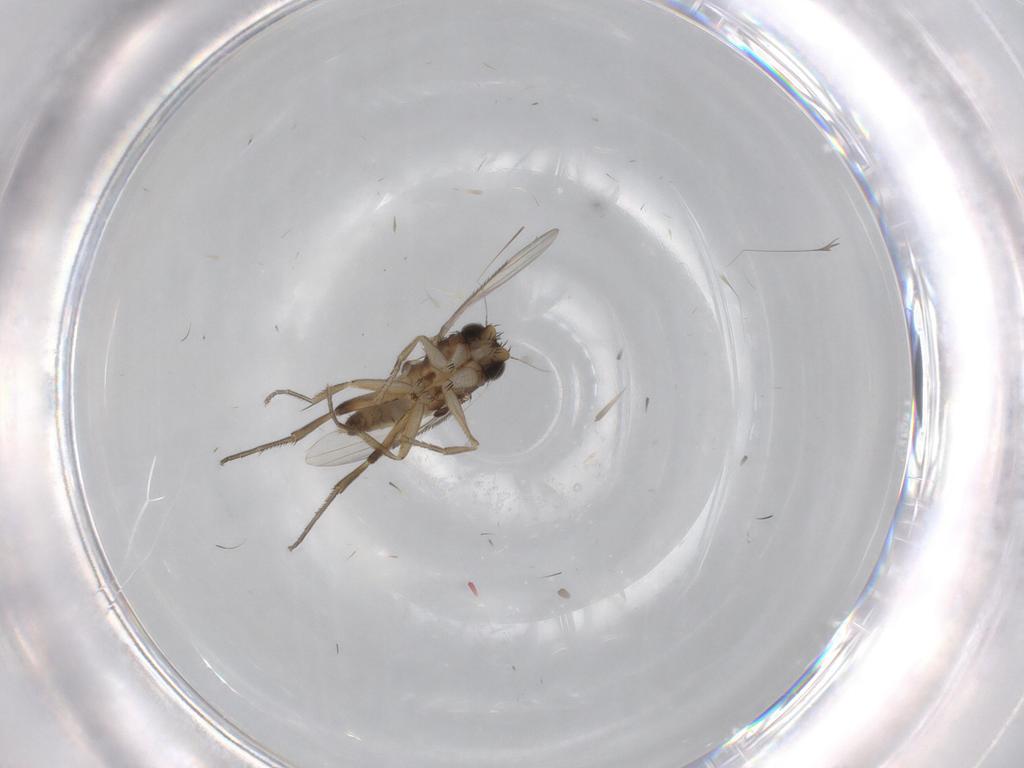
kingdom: Animalia
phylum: Arthropoda
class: Insecta
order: Diptera
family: Phoridae
